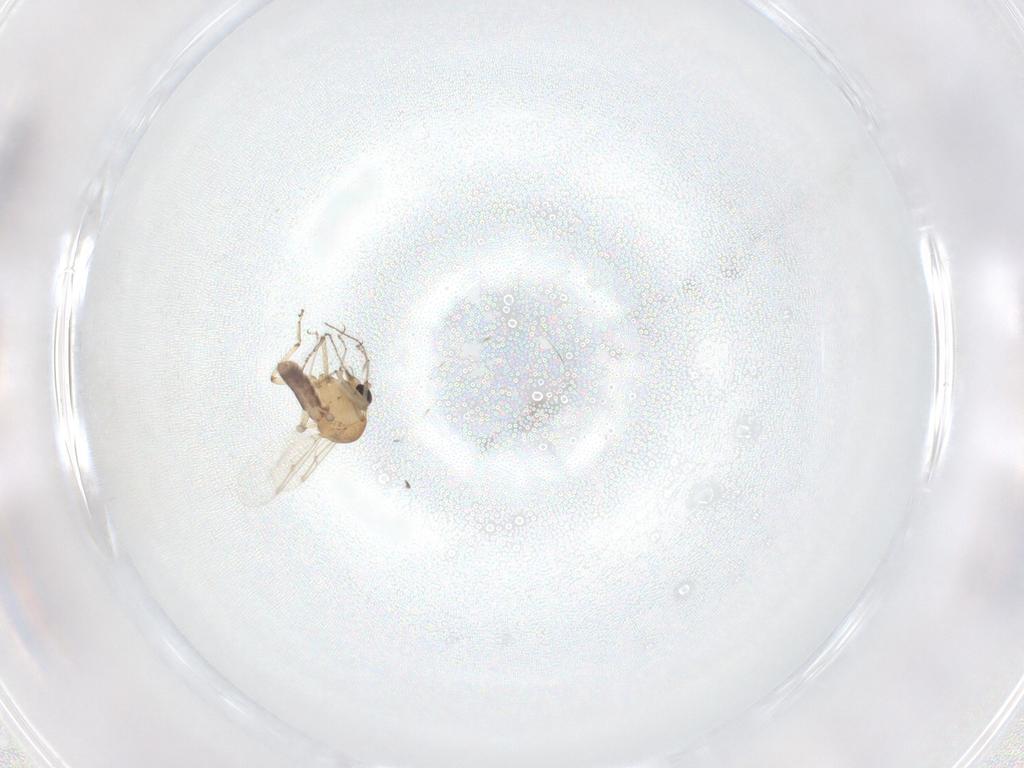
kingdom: Animalia
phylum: Arthropoda
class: Insecta
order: Diptera
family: Ceratopogonidae
